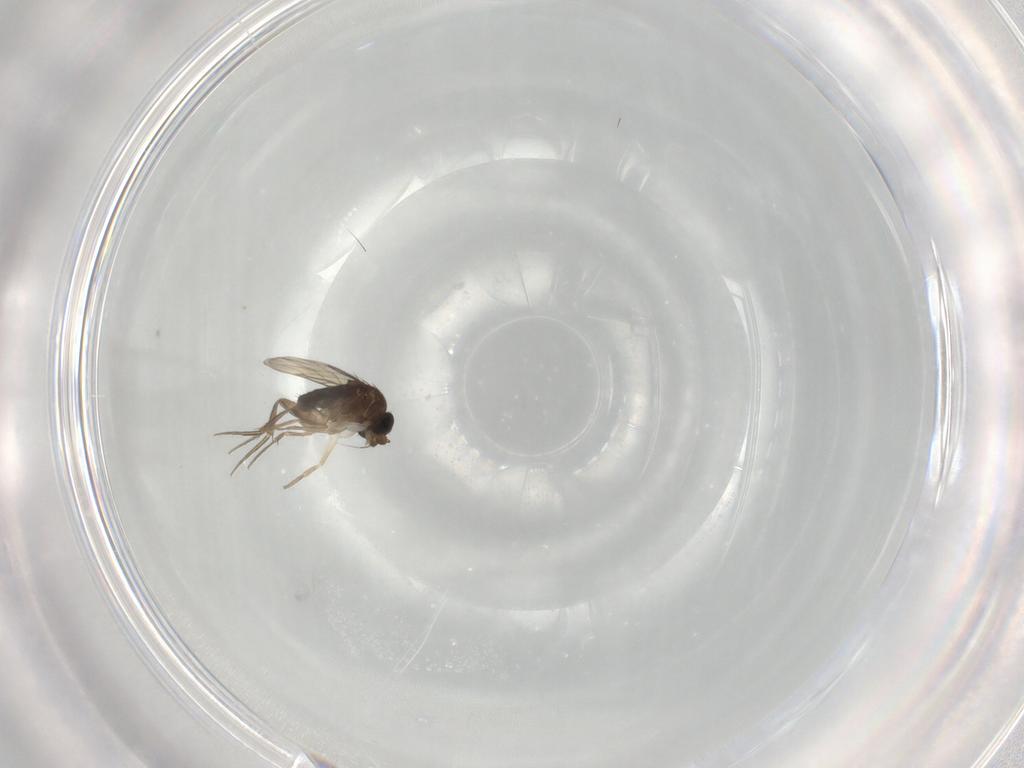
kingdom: Animalia
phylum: Arthropoda
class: Insecta
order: Diptera
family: Phoridae
